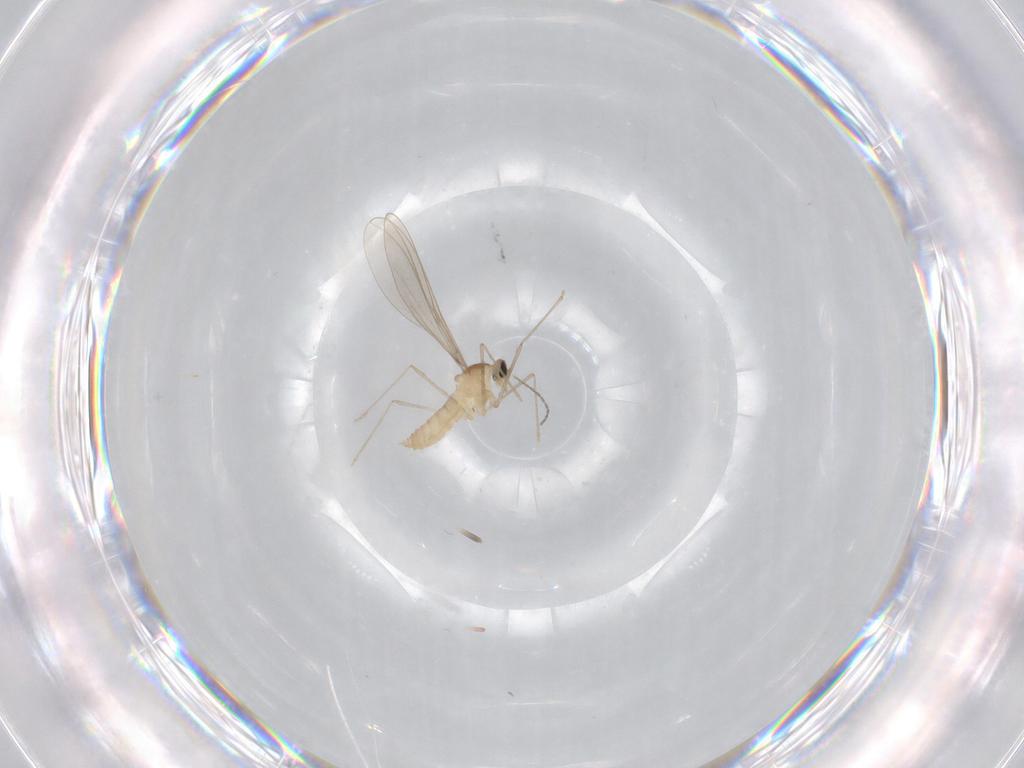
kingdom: Animalia
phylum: Arthropoda
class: Insecta
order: Diptera
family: Cecidomyiidae
